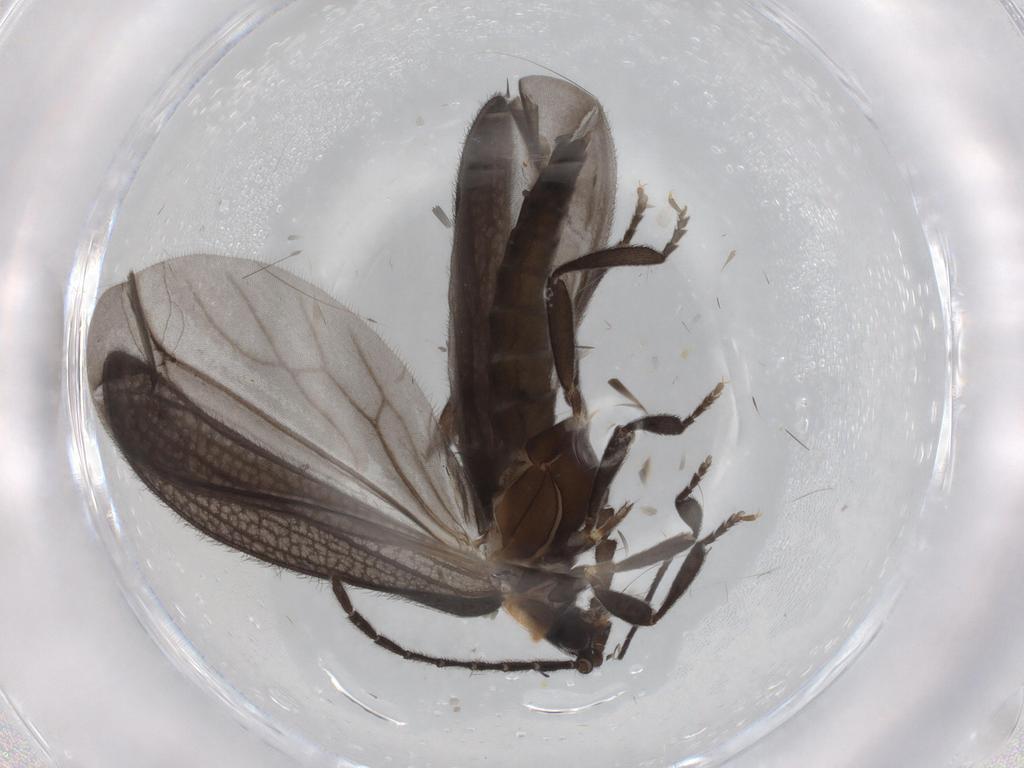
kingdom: Animalia
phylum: Arthropoda
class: Insecta
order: Coleoptera
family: Lycidae
